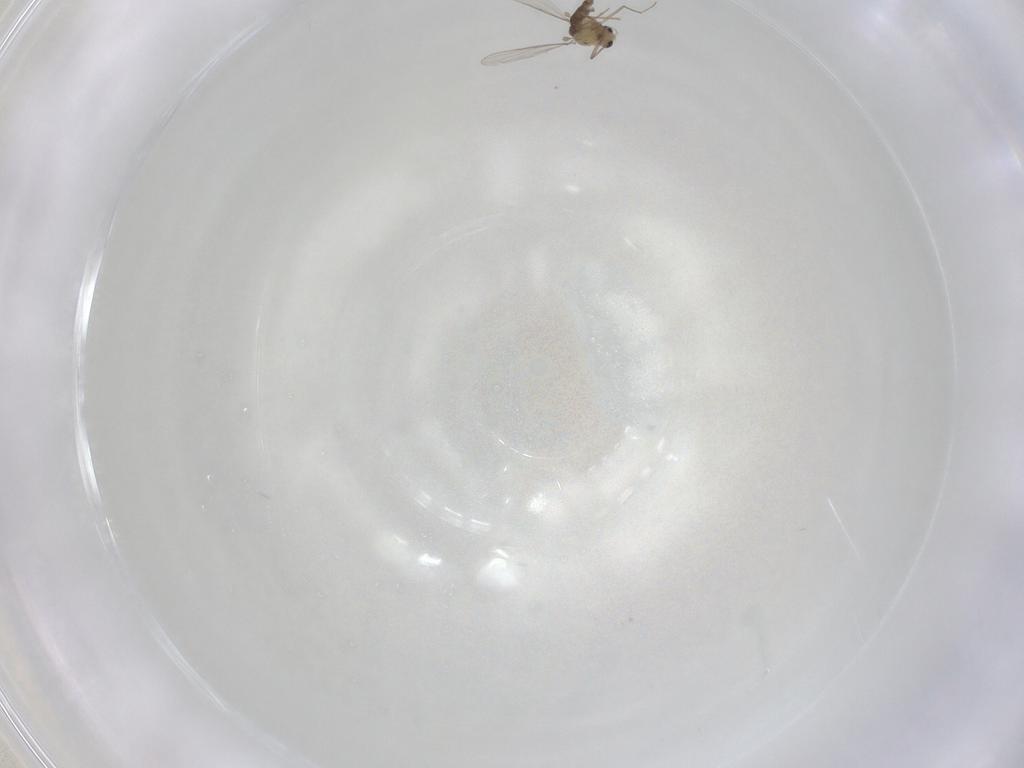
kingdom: Animalia
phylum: Arthropoda
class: Insecta
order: Diptera
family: Chironomidae
